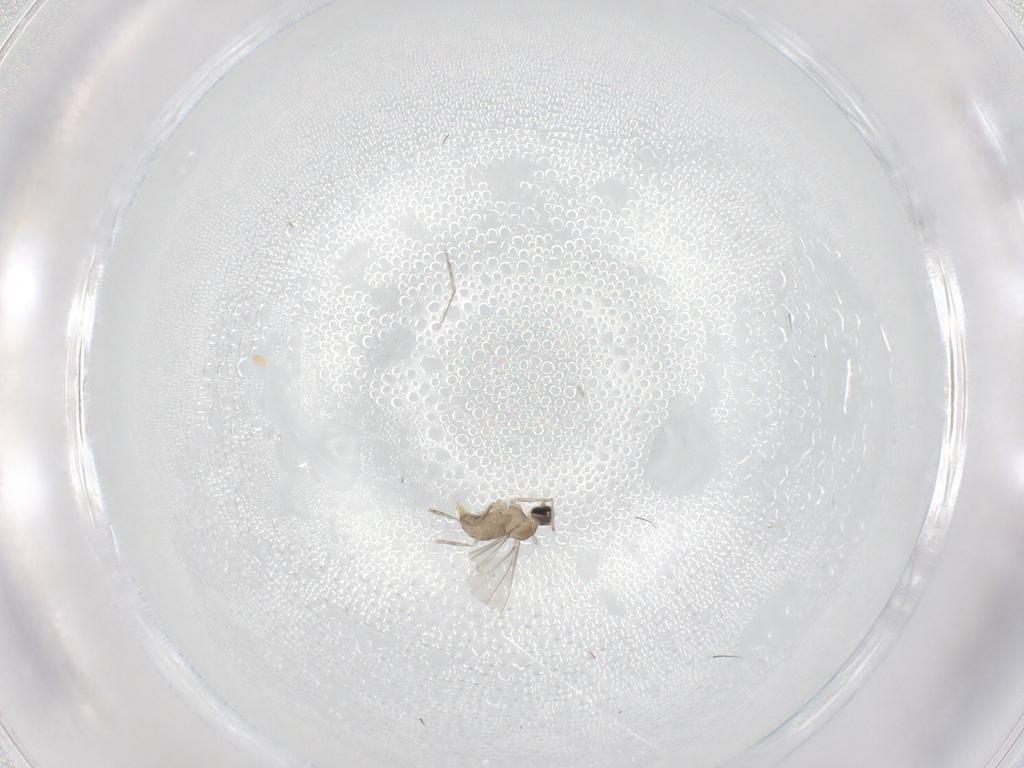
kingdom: Animalia
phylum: Arthropoda
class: Insecta
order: Diptera
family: Cecidomyiidae
